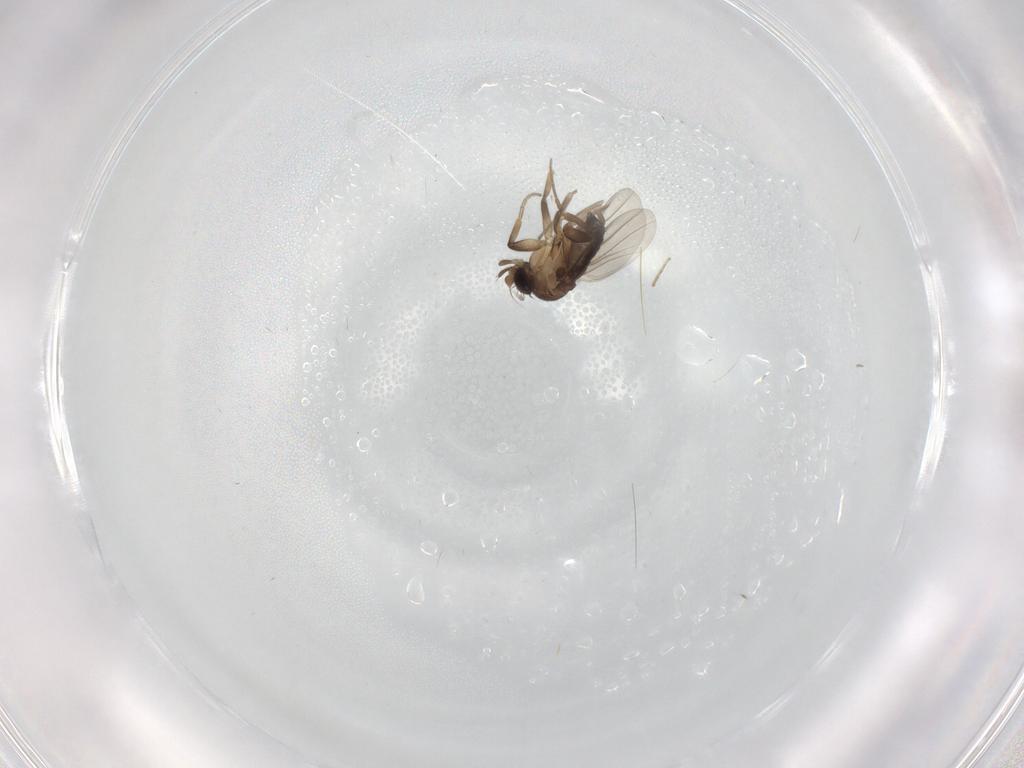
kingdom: Animalia
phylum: Arthropoda
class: Insecta
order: Diptera
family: Phoridae
